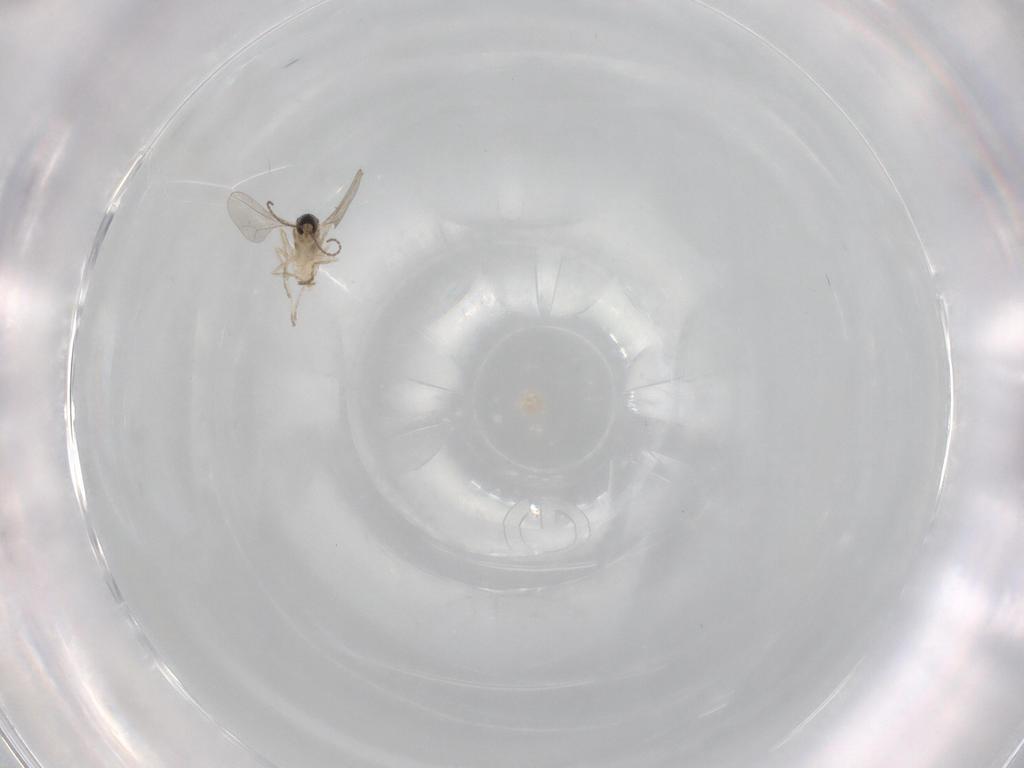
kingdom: Animalia
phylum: Arthropoda
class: Insecta
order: Diptera
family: Cecidomyiidae
